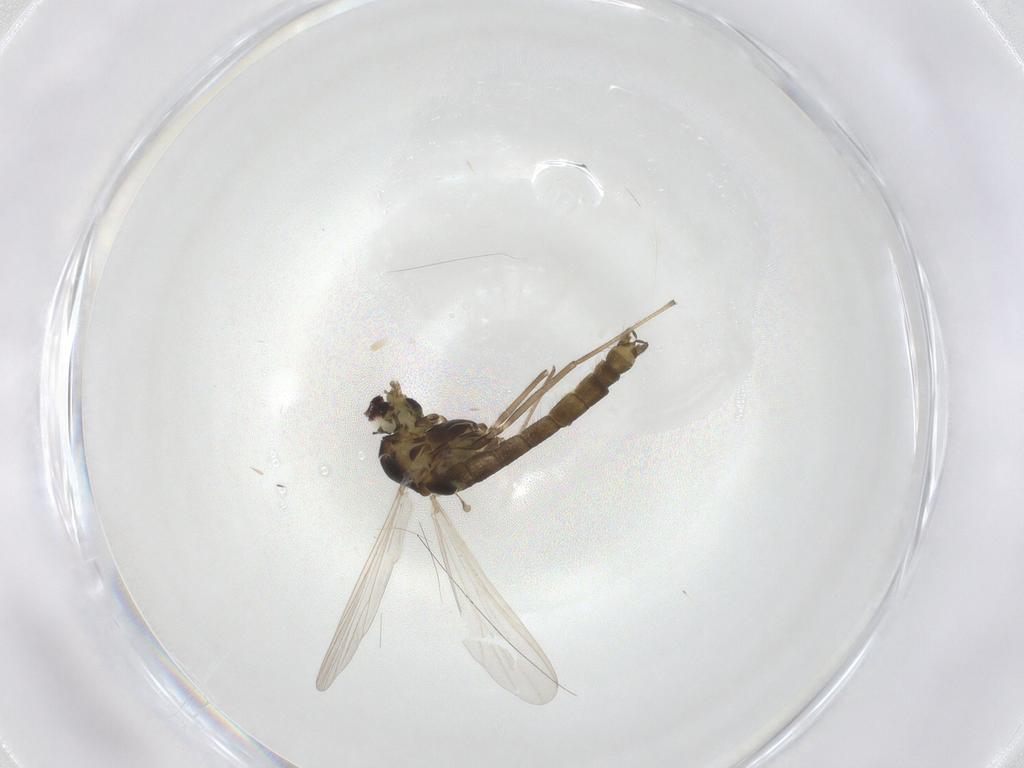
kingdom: Animalia
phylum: Arthropoda
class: Insecta
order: Diptera
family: Chironomidae
